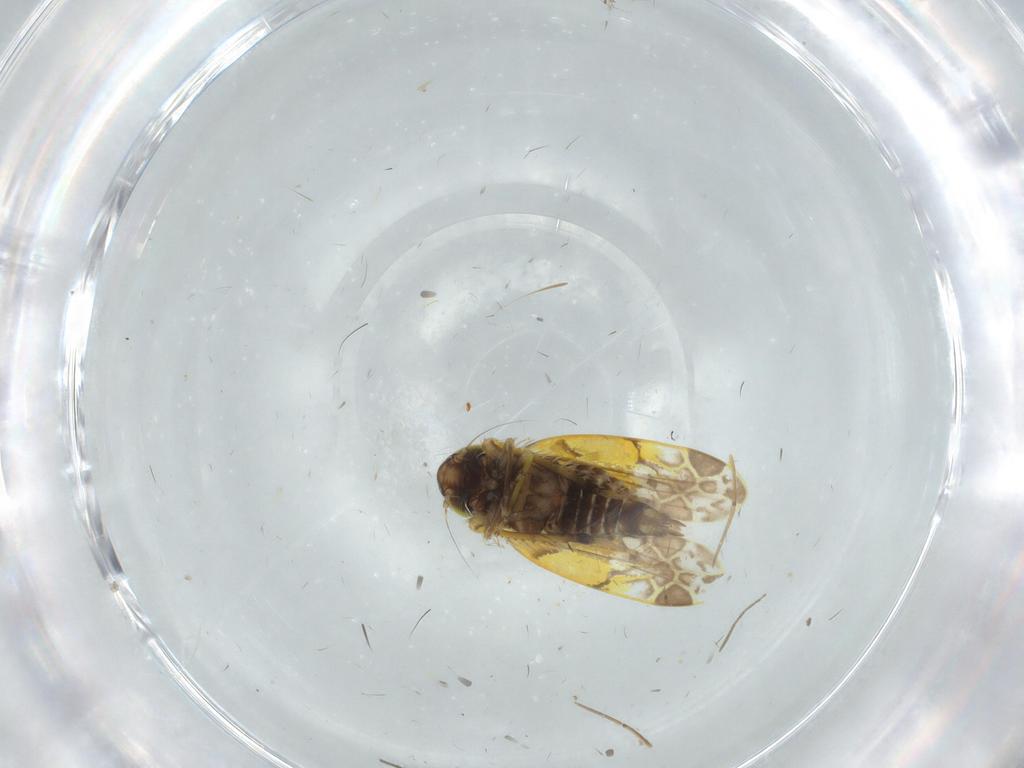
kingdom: Animalia
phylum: Arthropoda
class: Insecta
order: Hemiptera
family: Cicadellidae
